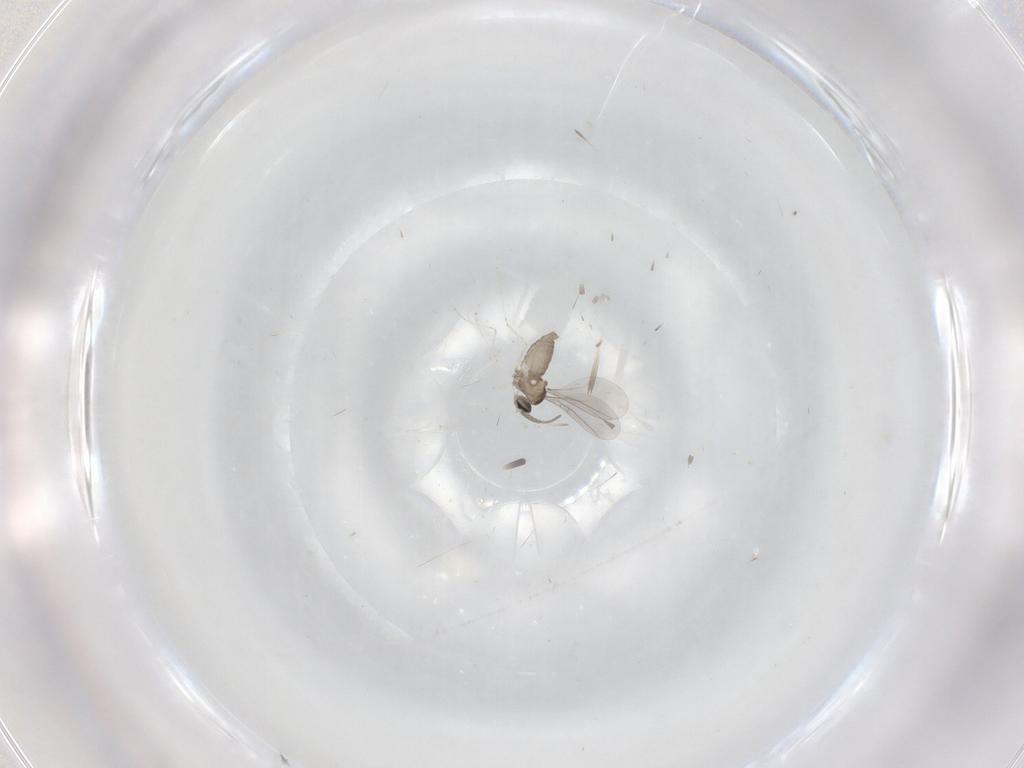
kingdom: Animalia
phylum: Arthropoda
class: Insecta
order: Diptera
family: Cecidomyiidae
